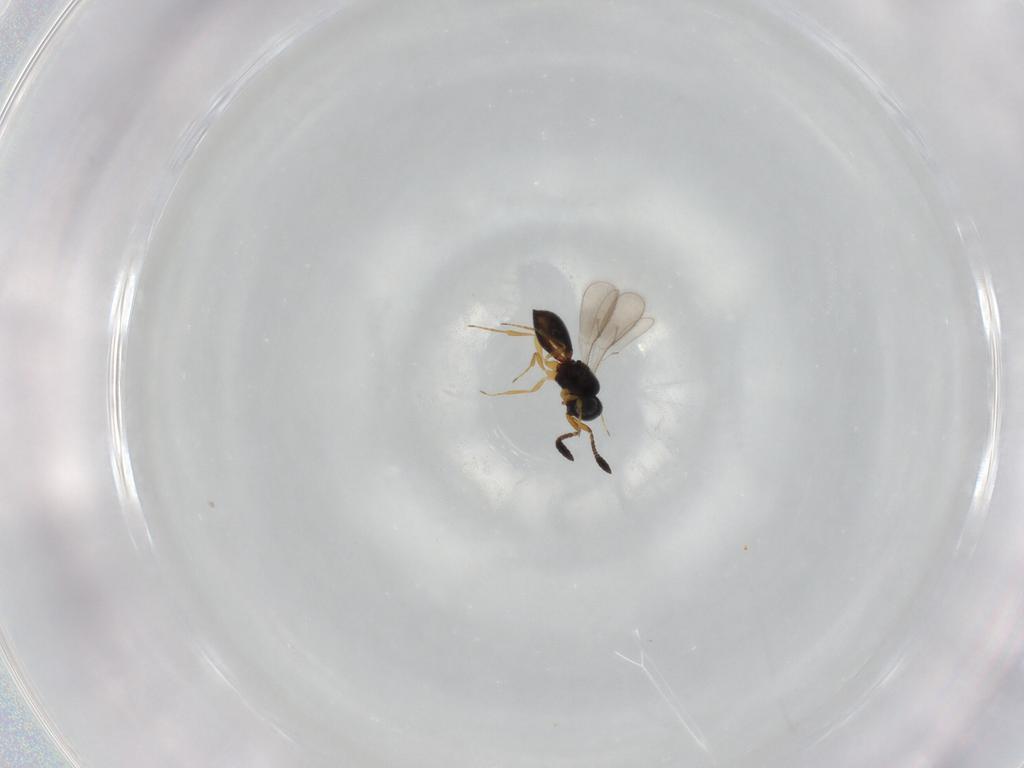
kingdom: Animalia
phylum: Arthropoda
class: Insecta
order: Hymenoptera
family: Scelionidae
